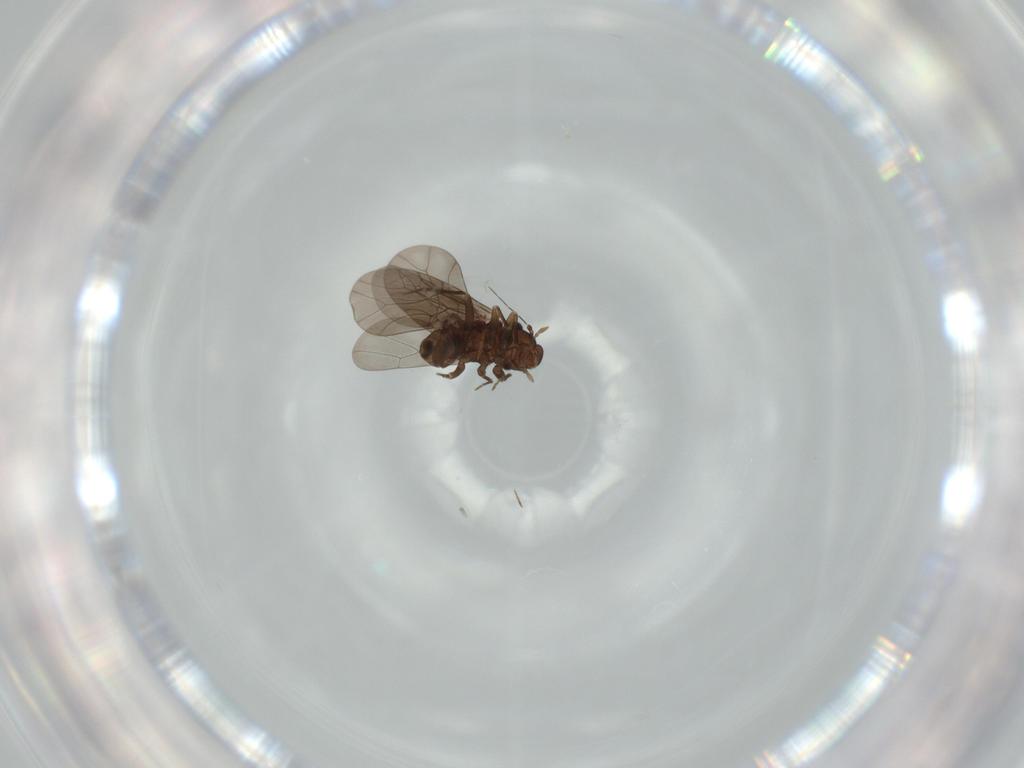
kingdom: Animalia
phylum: Arthropoda
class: Insecta
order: Psocodea
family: Lepidopsocidae
